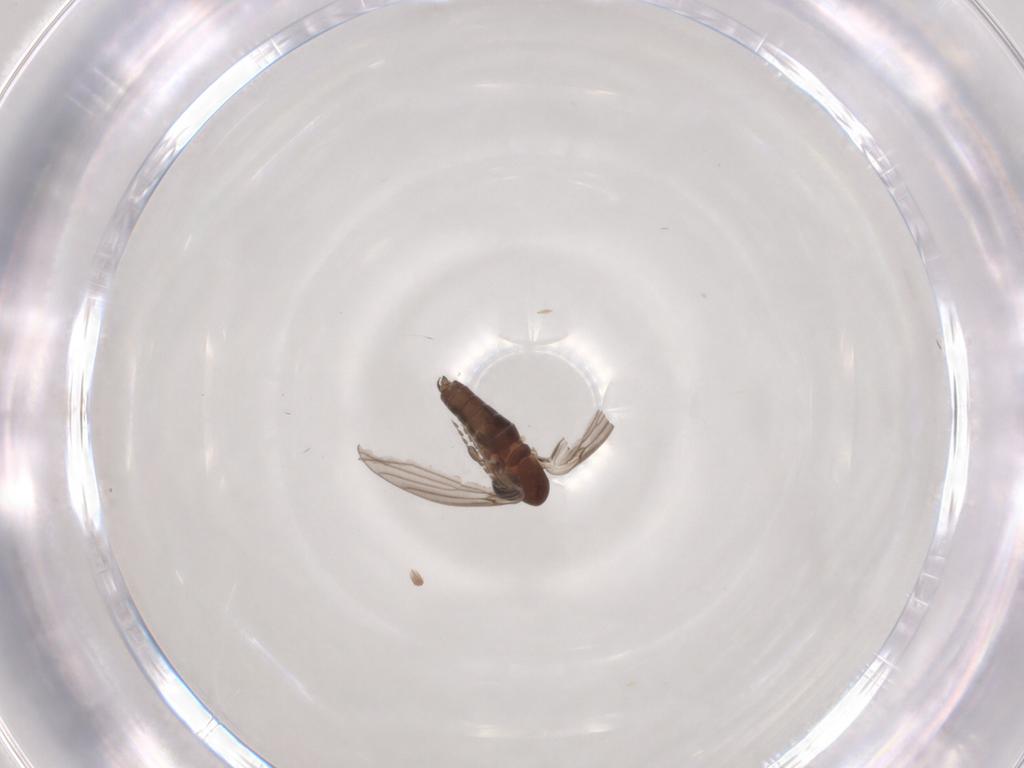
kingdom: Animalia
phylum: Arthropoda
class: Insecta
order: Diptera
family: Psychodidae
